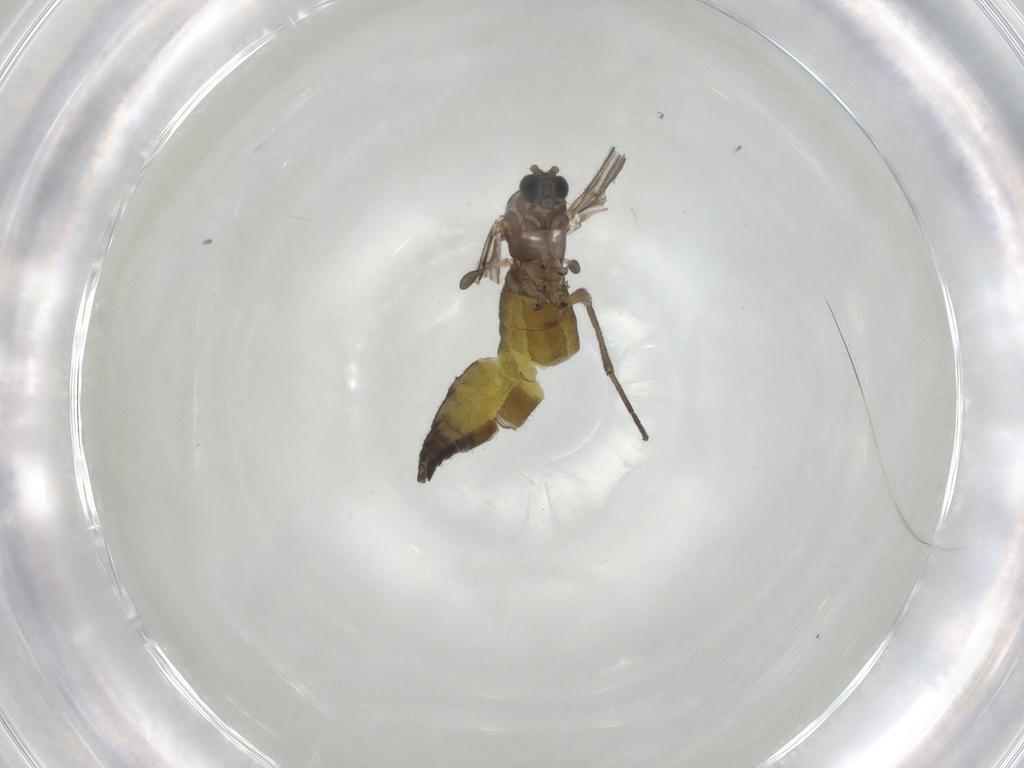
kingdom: Animalia
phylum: Arthropoda
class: Insecta
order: Diptera
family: Sciaridae
